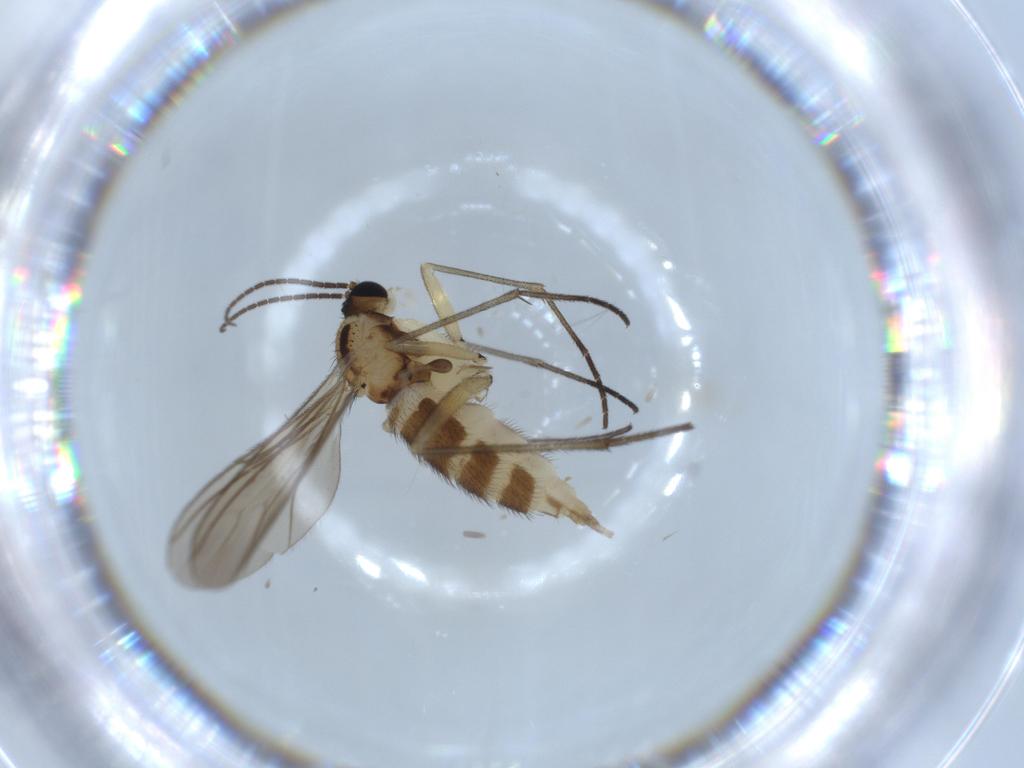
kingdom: Animalia
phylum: Arthropoda
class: Insecta
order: Diptera
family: Sciaridae
